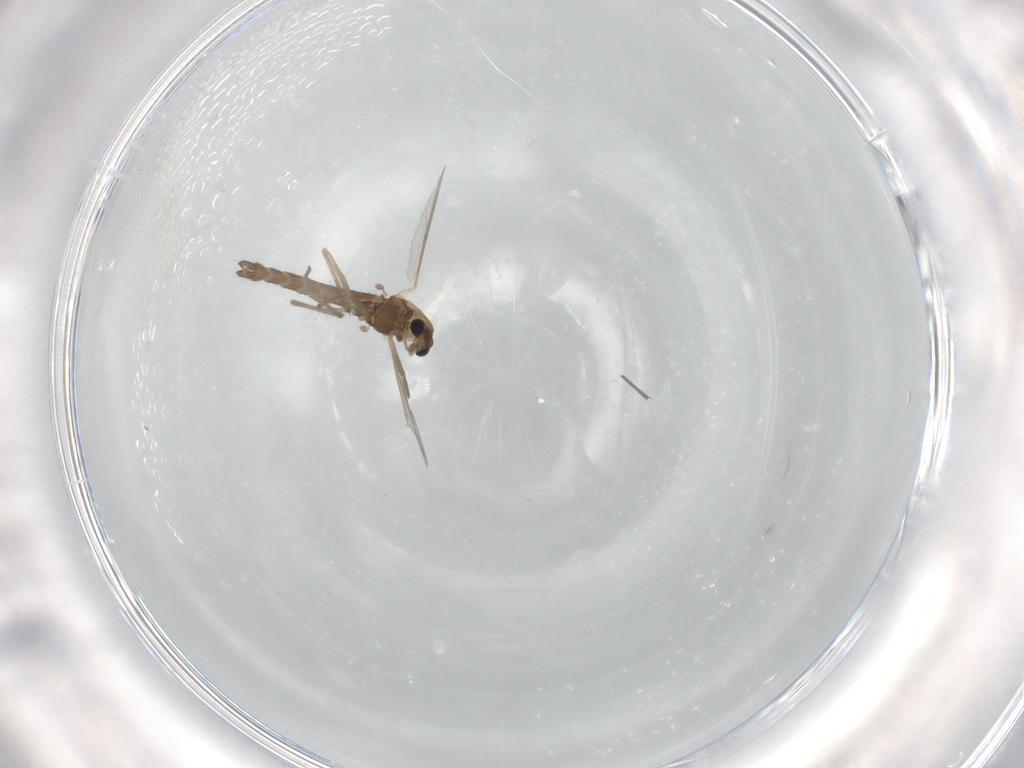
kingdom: Animalia
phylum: Arthropoda
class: Insecta
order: Diptera
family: Chironomidae
